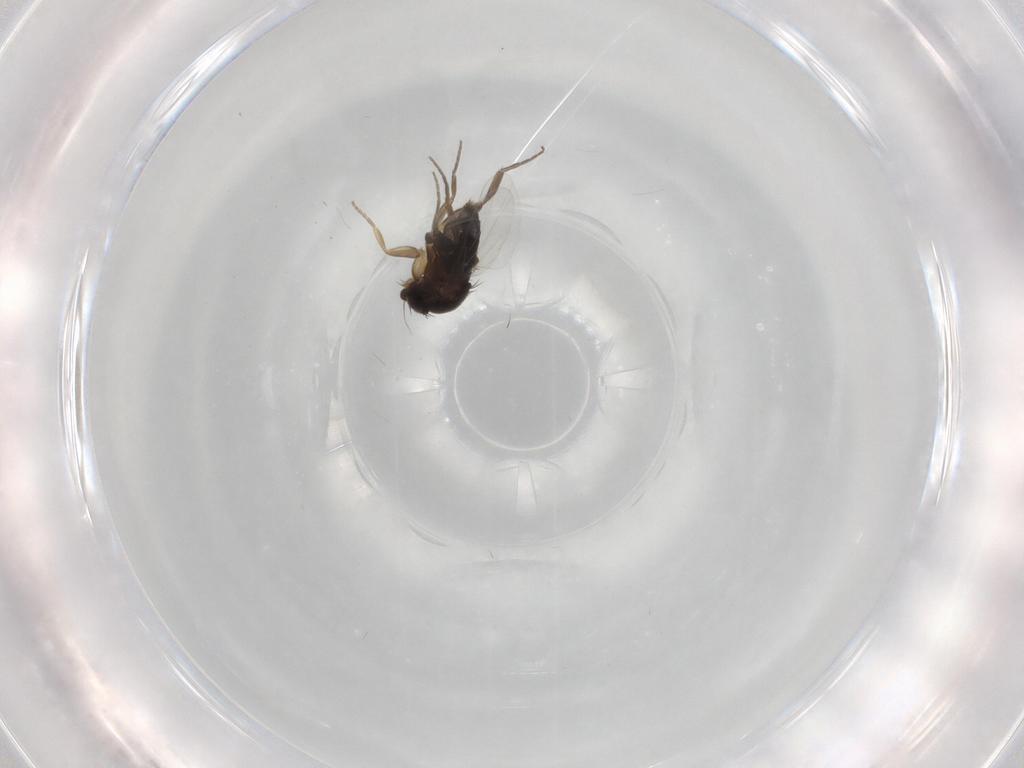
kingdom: Animalia
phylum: Arthropoda
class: Insecta
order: Diptera
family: Phoridae
